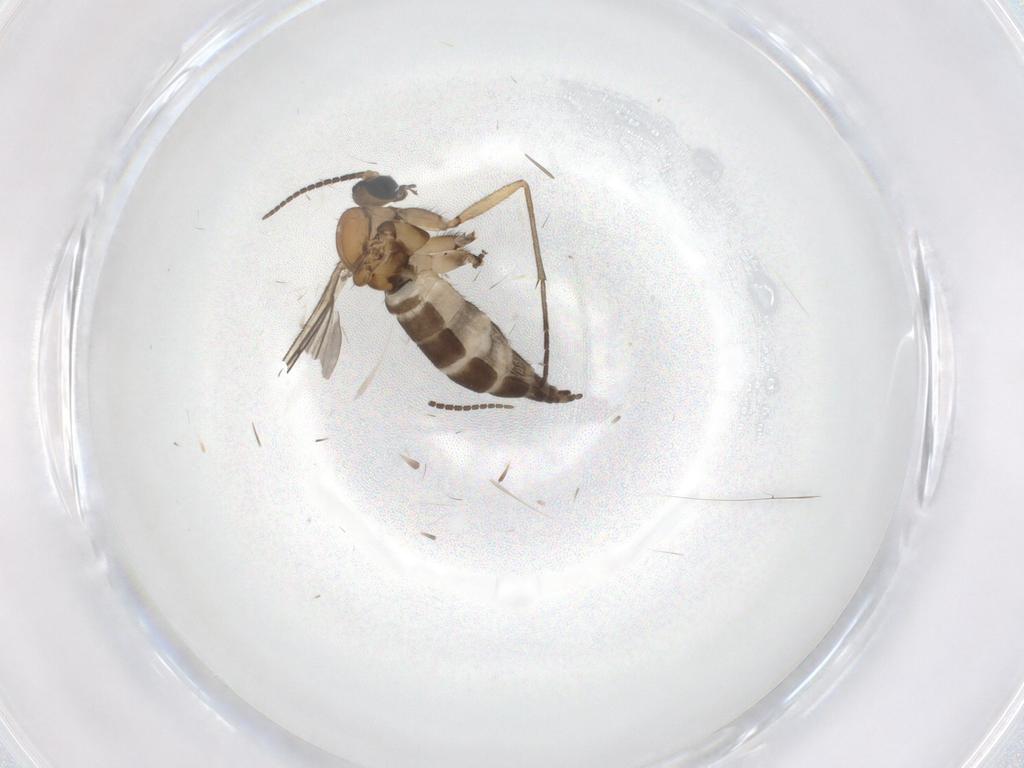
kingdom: Animalia
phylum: Arthropoda
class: Insecta
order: Diptera
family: Sciaridae
